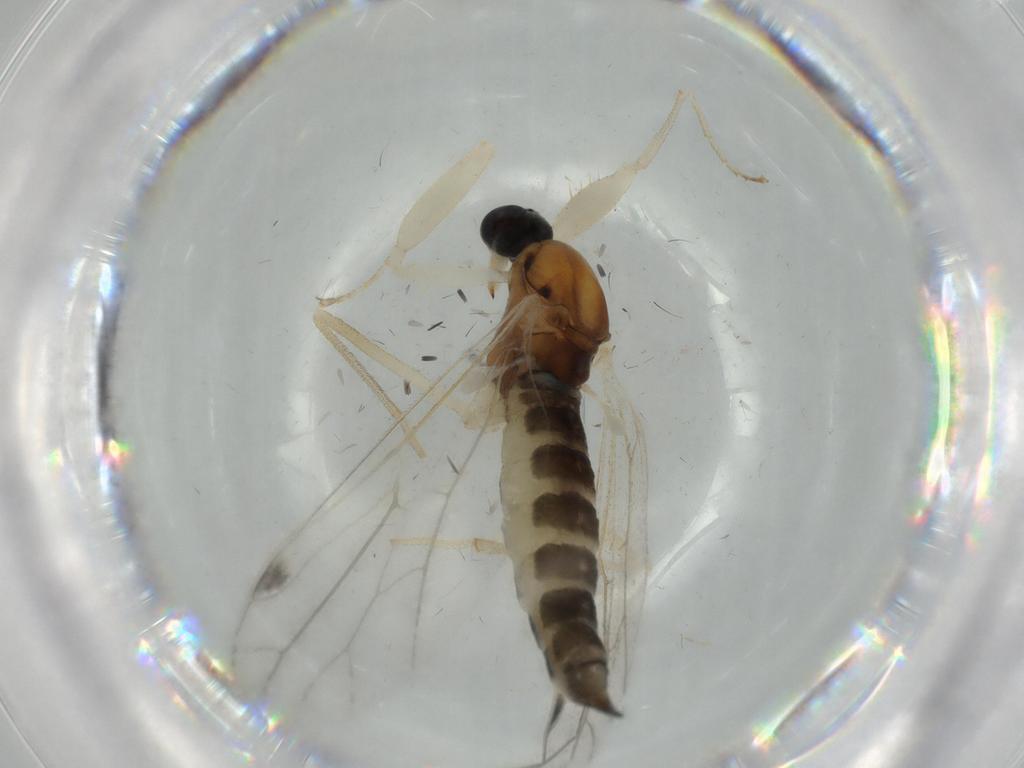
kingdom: Animalia
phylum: Arthropoda
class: Insecta
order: Diptera
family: Empididae
